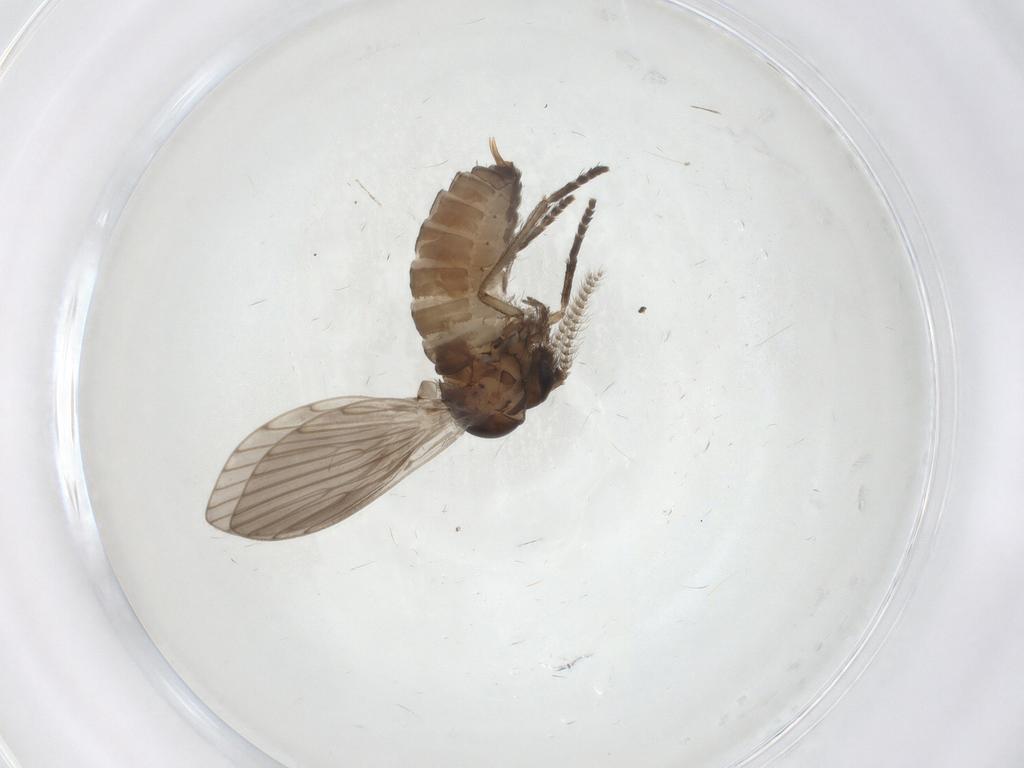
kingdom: Animalia
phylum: Arthropoda
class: Insecta
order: Diptera
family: Psychodidae
